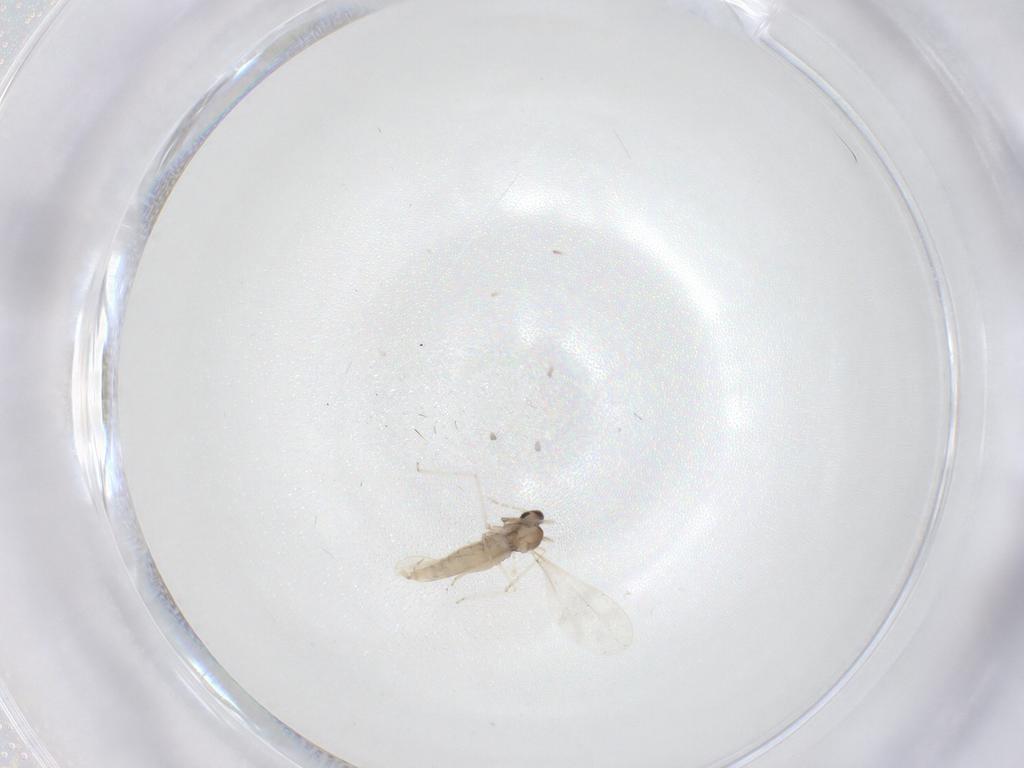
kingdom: Animalia
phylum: Arthropoda
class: Insecta
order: Diptera
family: Cecidomyiidae
